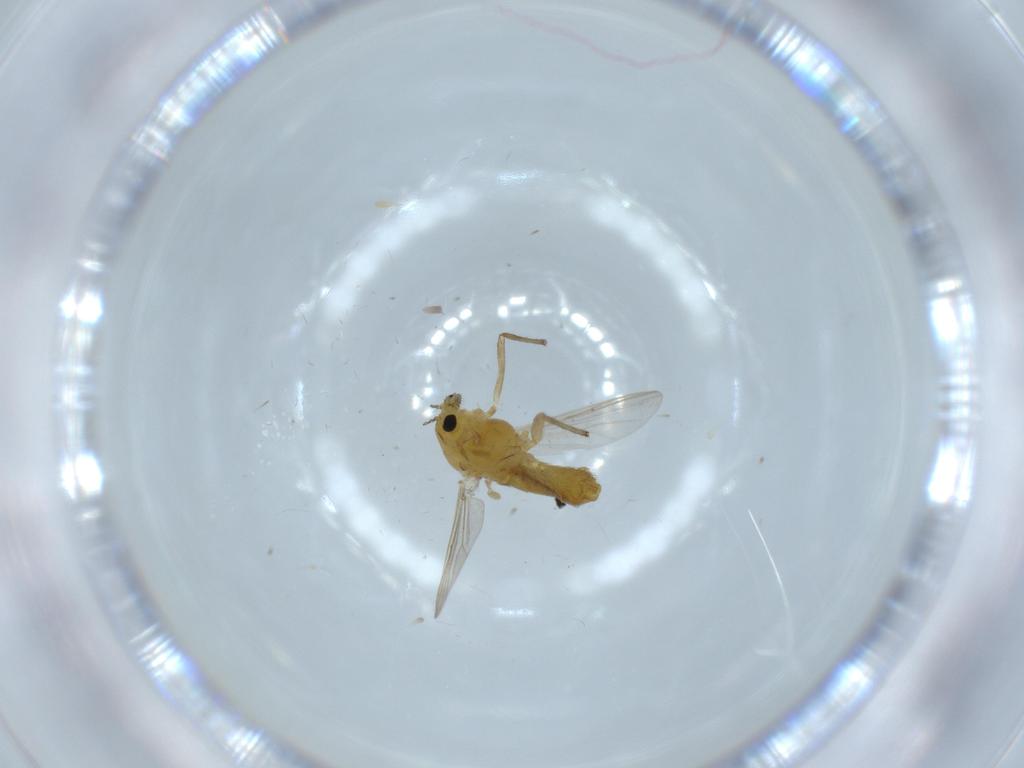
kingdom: Animalia
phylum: Arthropoda
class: Insecta
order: Diptera
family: Chironomidae
